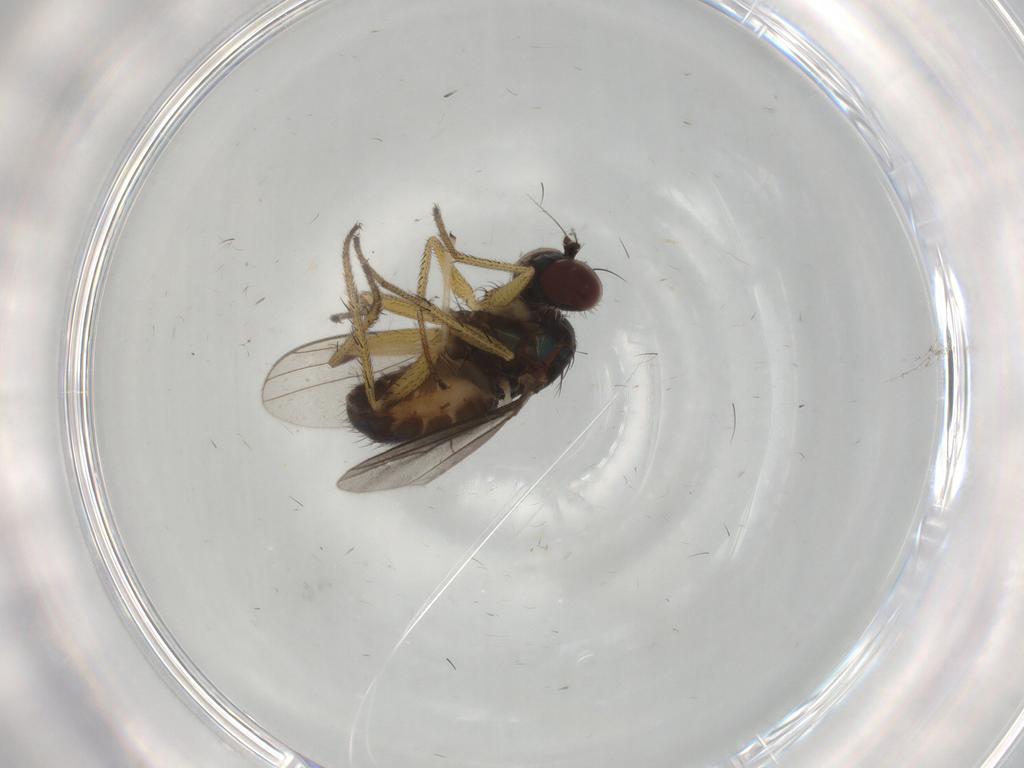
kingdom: Animalia
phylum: Arthropoda
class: Insecta
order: Diptera
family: Dolichopodidae
